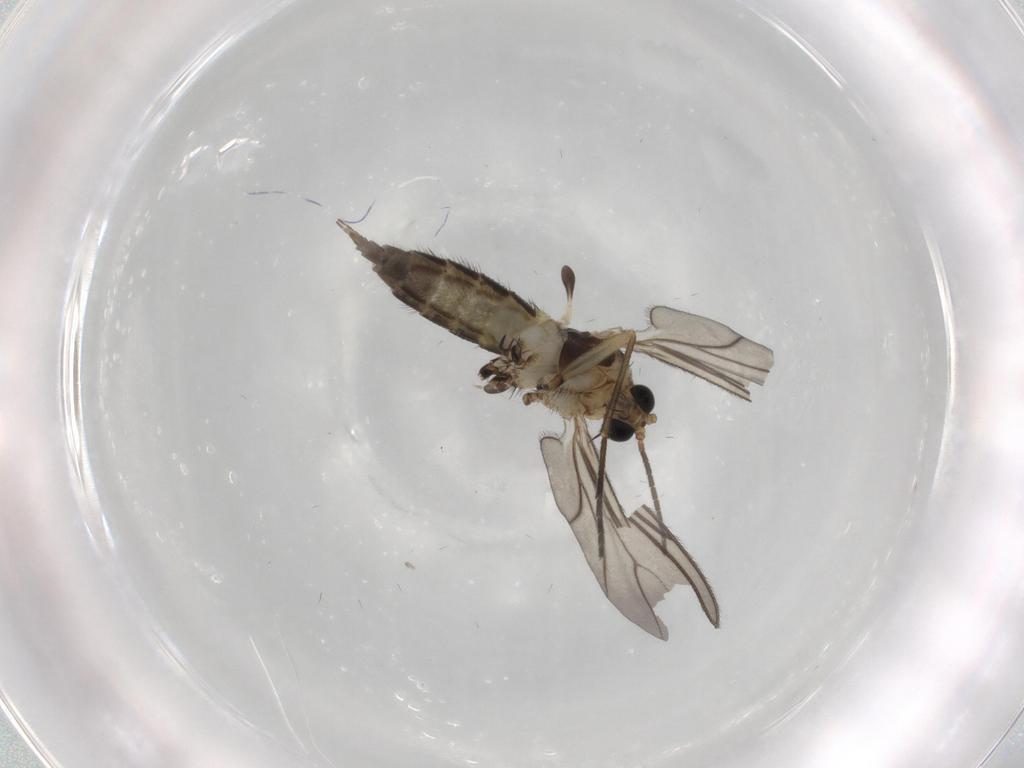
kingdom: Animalia
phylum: Arthropoda
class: Insecta
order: Diptera
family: Sciaridae
